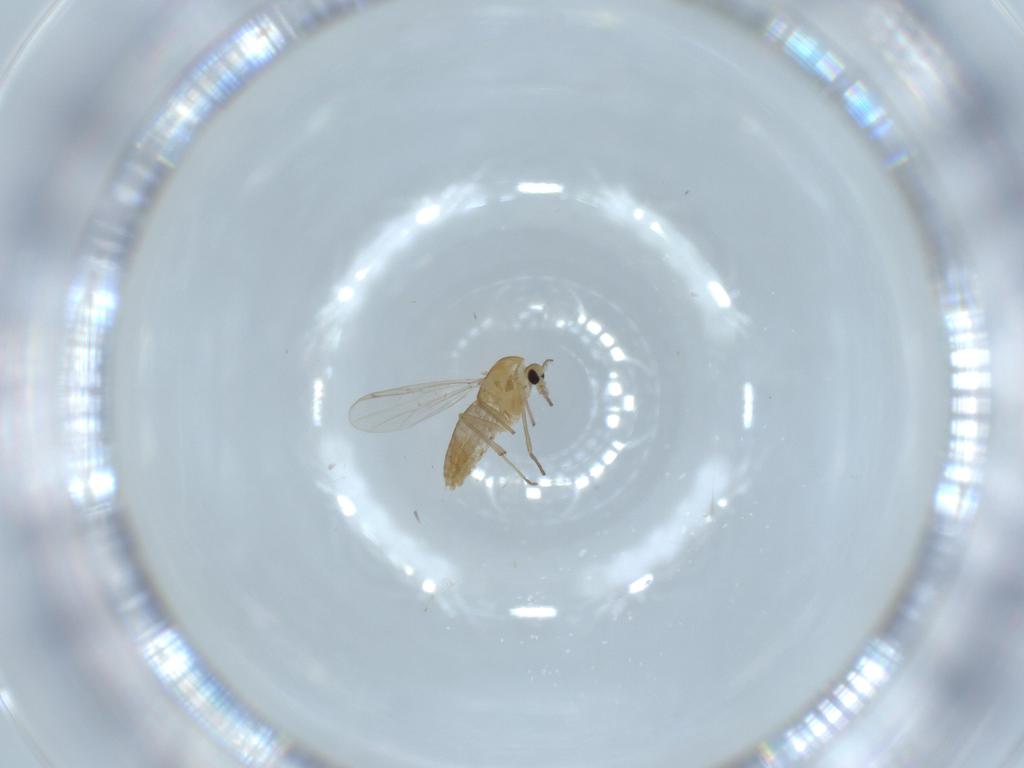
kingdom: Animalia
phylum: Arthropoda
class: Insecta
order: Diptera
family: Chironomidae
